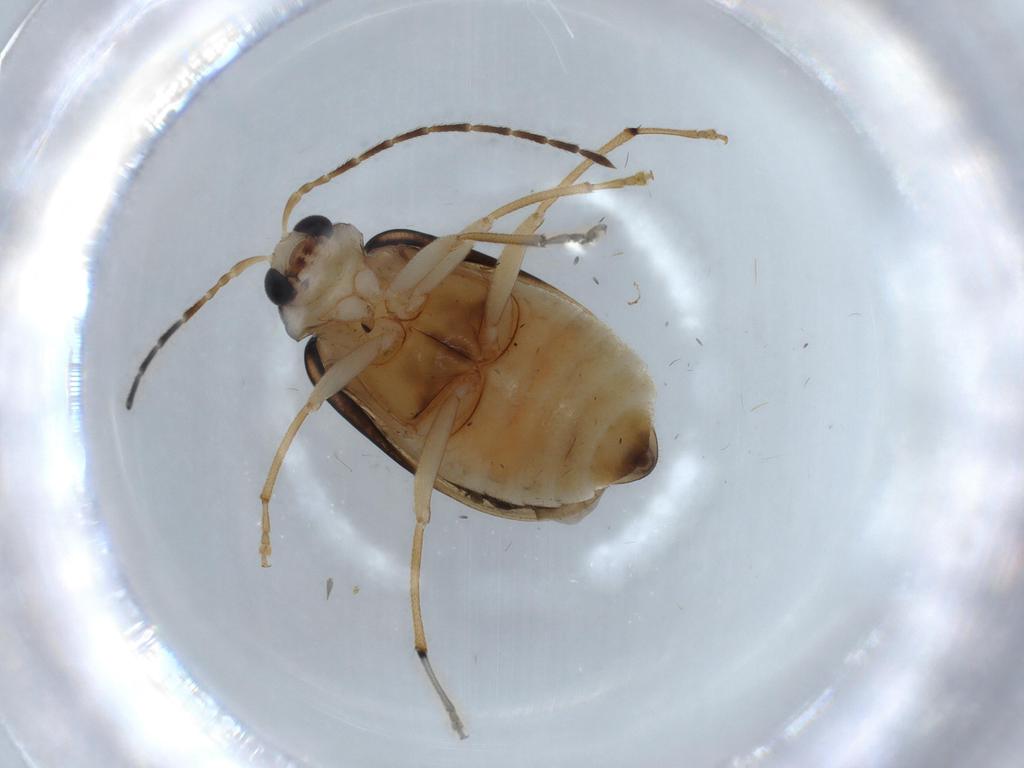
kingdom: Animalia
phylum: Arthropoda
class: Insecta
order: Coleoptera
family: Chrysomelidae
